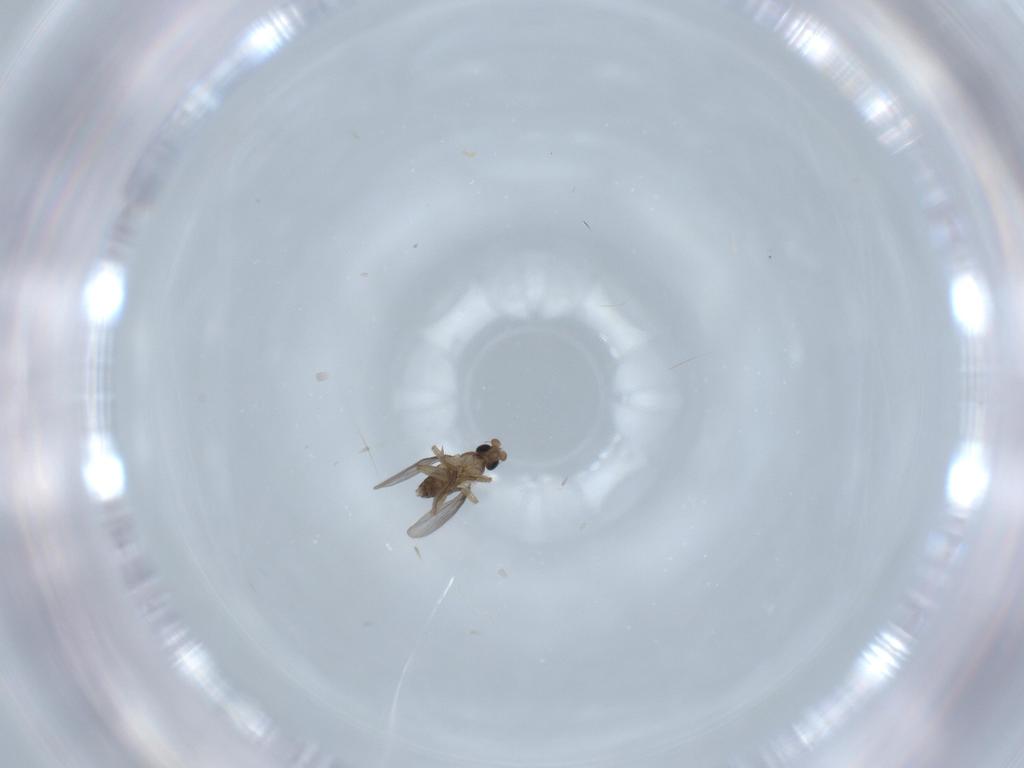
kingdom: Animalia
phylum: Arthropoda
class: Insecta
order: Diptera
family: Phoridae
